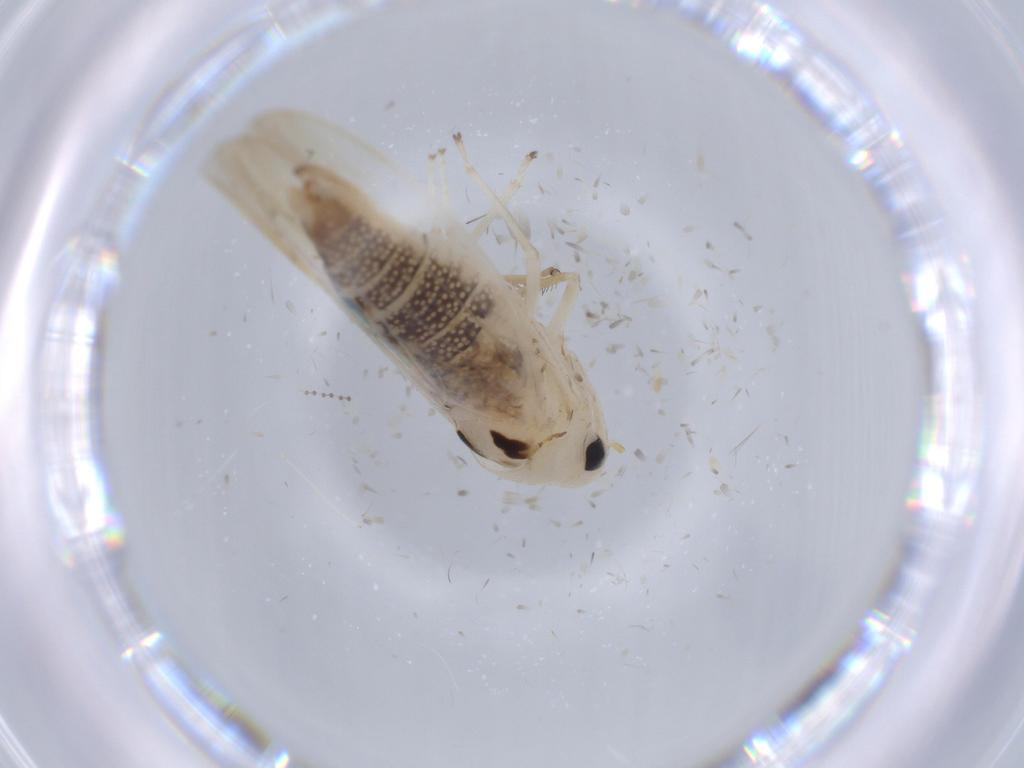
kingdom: Animalia
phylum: Arthropoda
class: Insecta
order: Hemiptera
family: Cicadellidae
